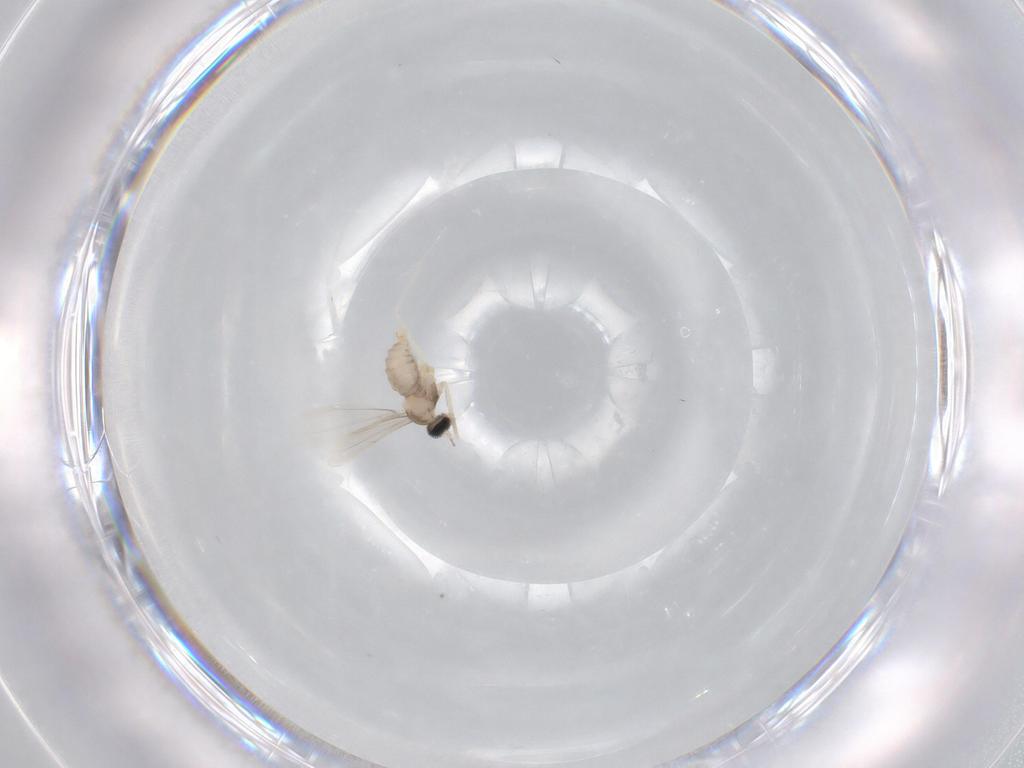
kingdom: Animalia
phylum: Arthropoda
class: Insecta
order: Diptera
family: Cecidomyiidae
